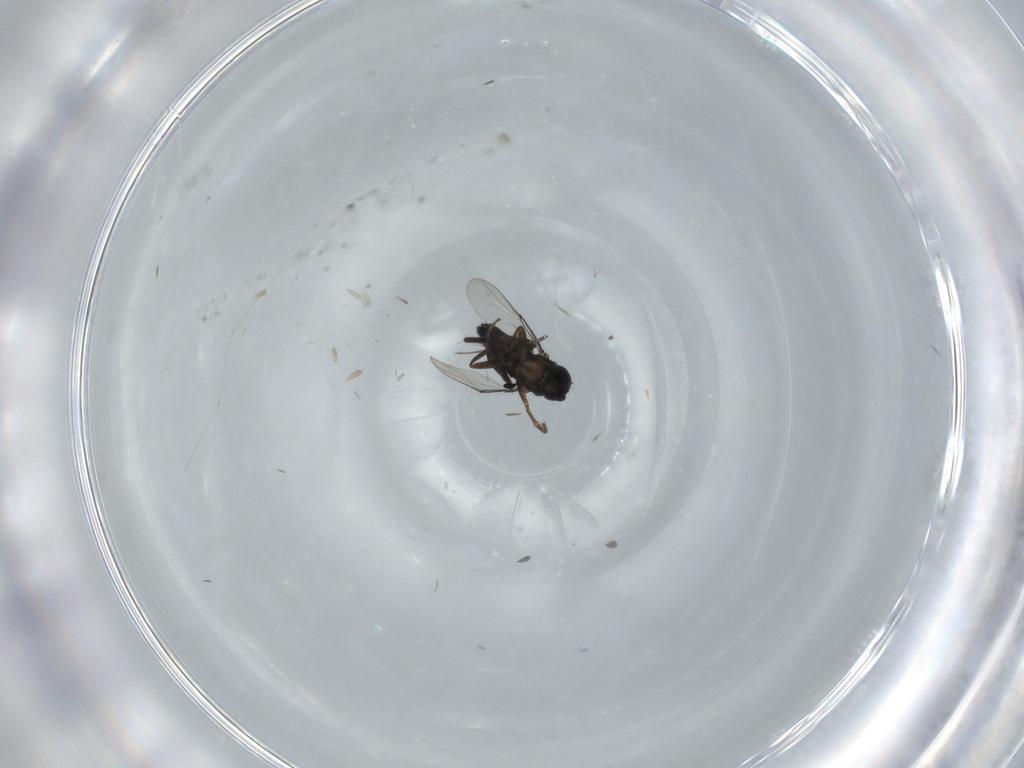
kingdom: Animalia
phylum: Arthropoda
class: Insecta
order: Diptera
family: Phoridae
